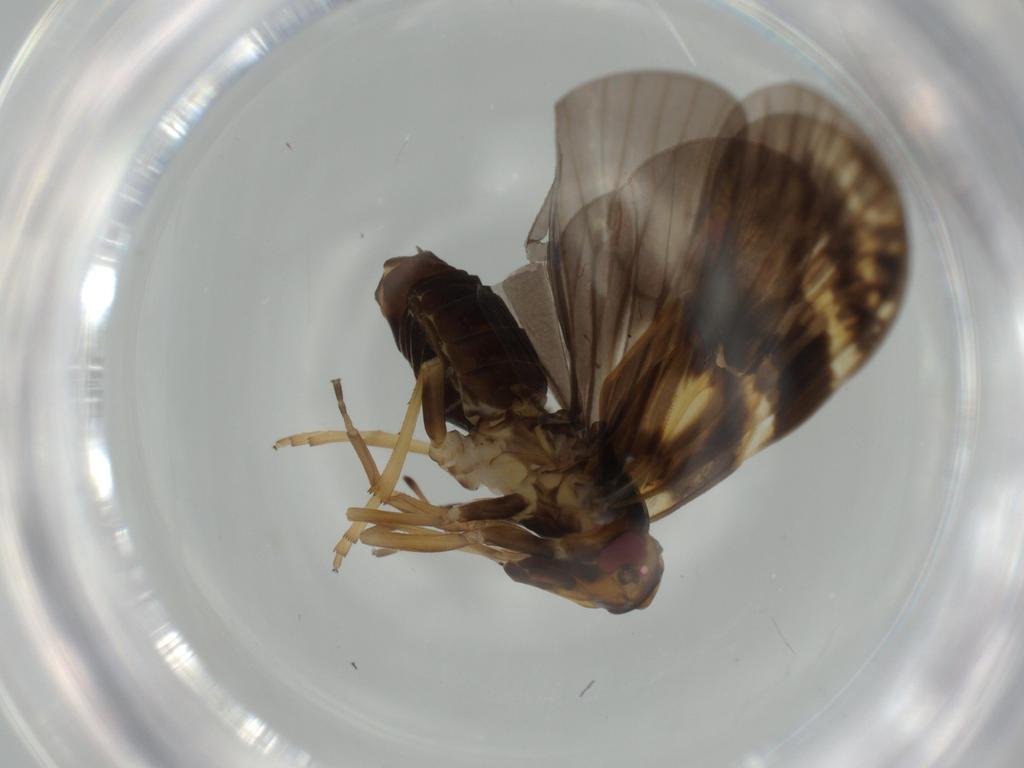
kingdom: Animalia
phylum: Arthropoda
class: Insecta
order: Hemiptera
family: Cixiidae
